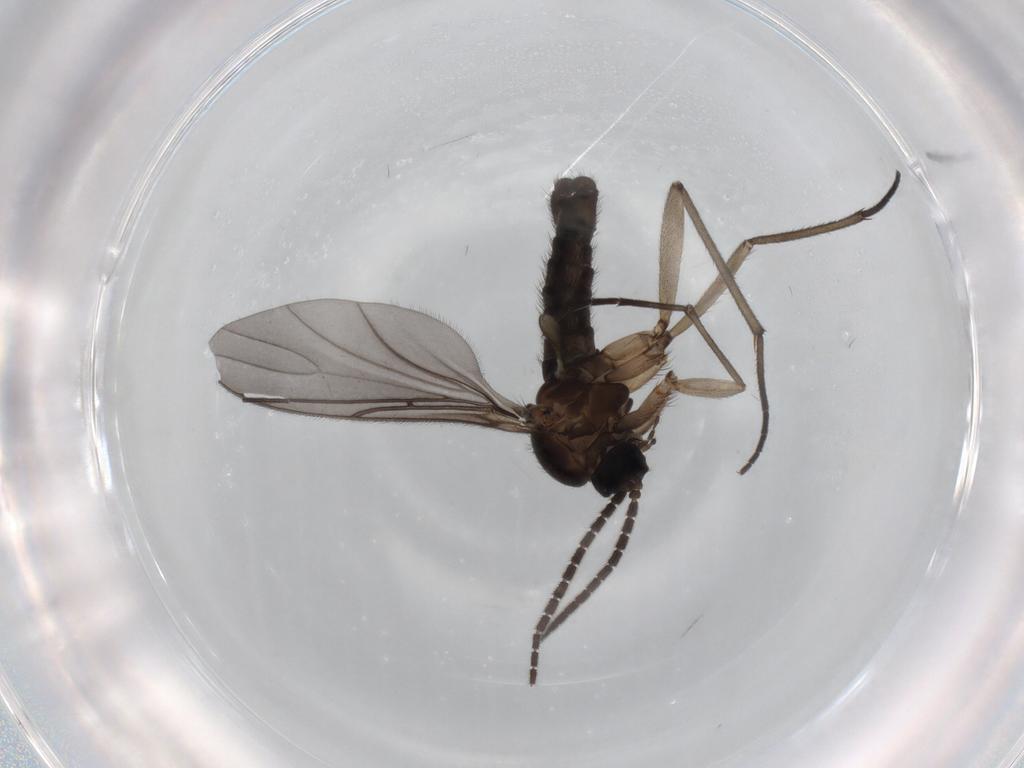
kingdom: Animalia
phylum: Arthropoda
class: Insecta
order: Diptera
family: Sciaridae
